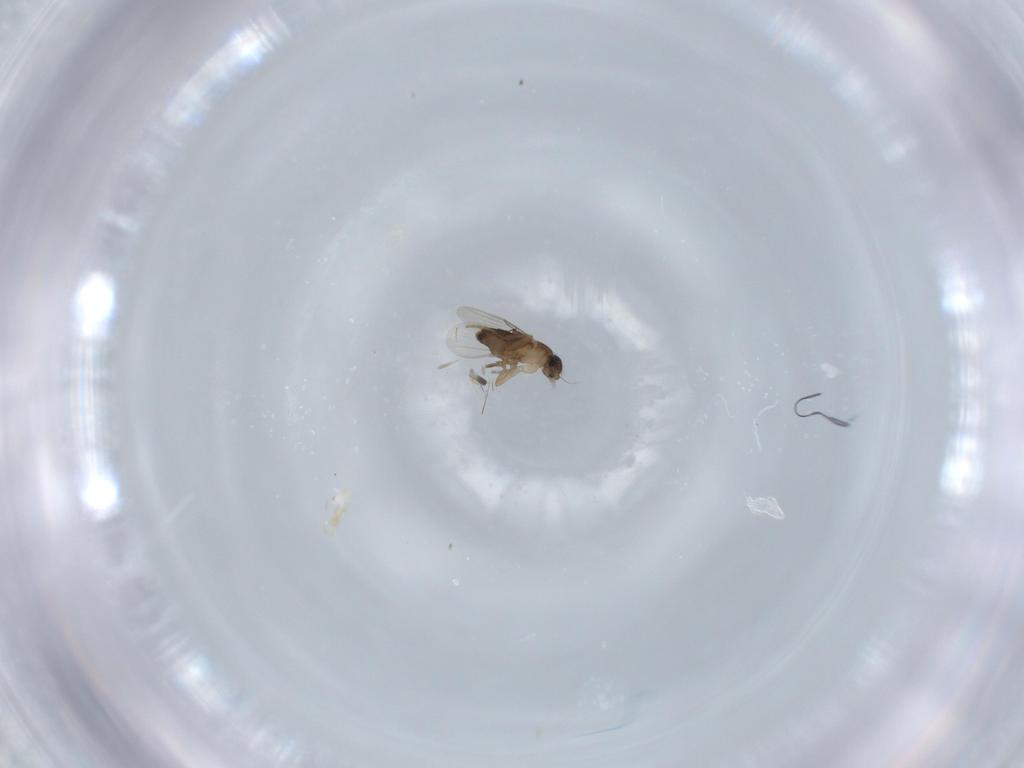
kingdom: Animalia
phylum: Arthropoda
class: Insecta
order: Diptera
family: Phoridae
